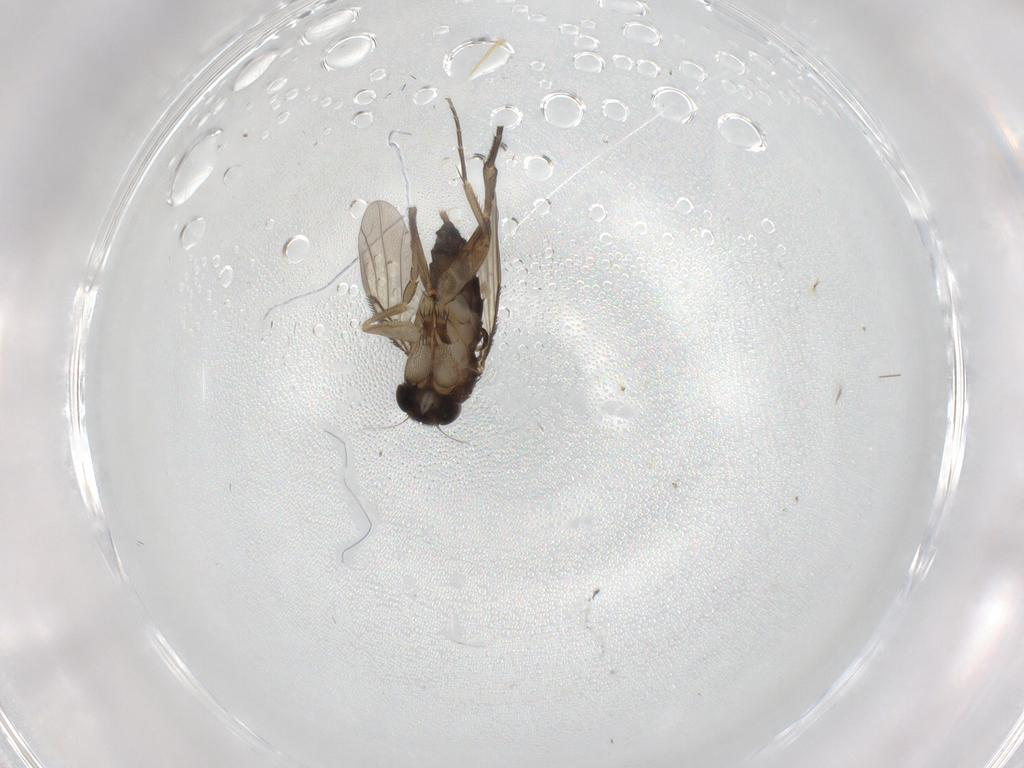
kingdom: Animalia
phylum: Arthropoda
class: Insecta
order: Diptera
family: Phoridae
